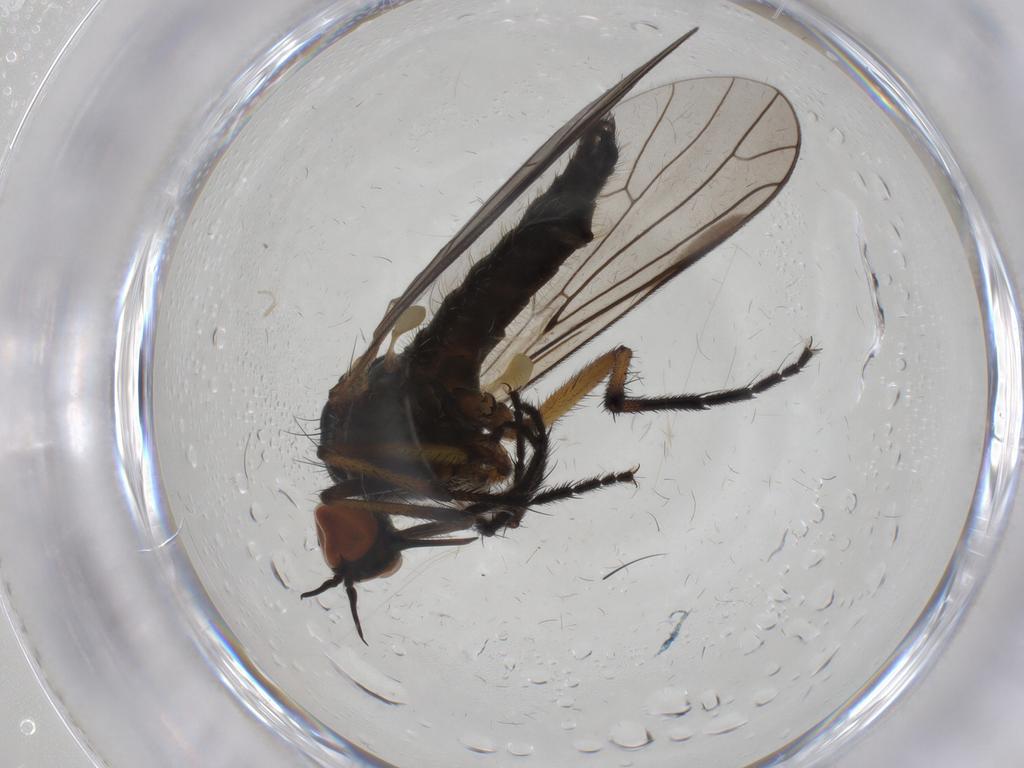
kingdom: Animalia
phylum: Arthropoda
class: Insecta
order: Diptera
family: Empididae
